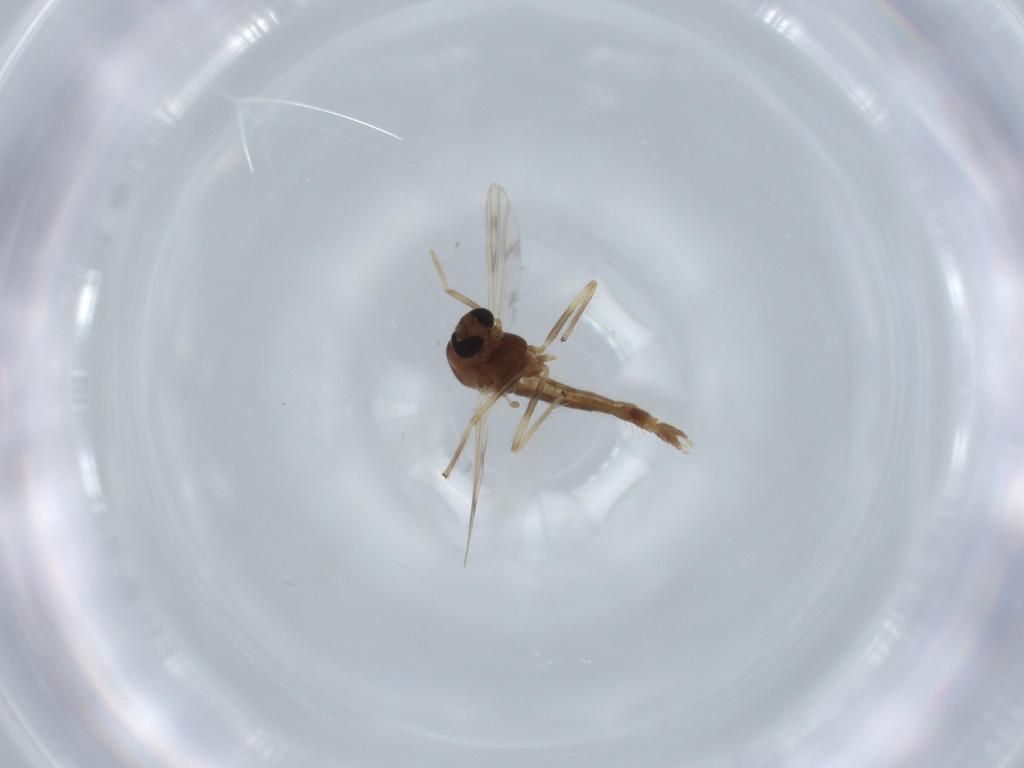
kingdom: Animalia
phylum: Arthropoda
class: Insecta
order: Diptera
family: Chironomidae
